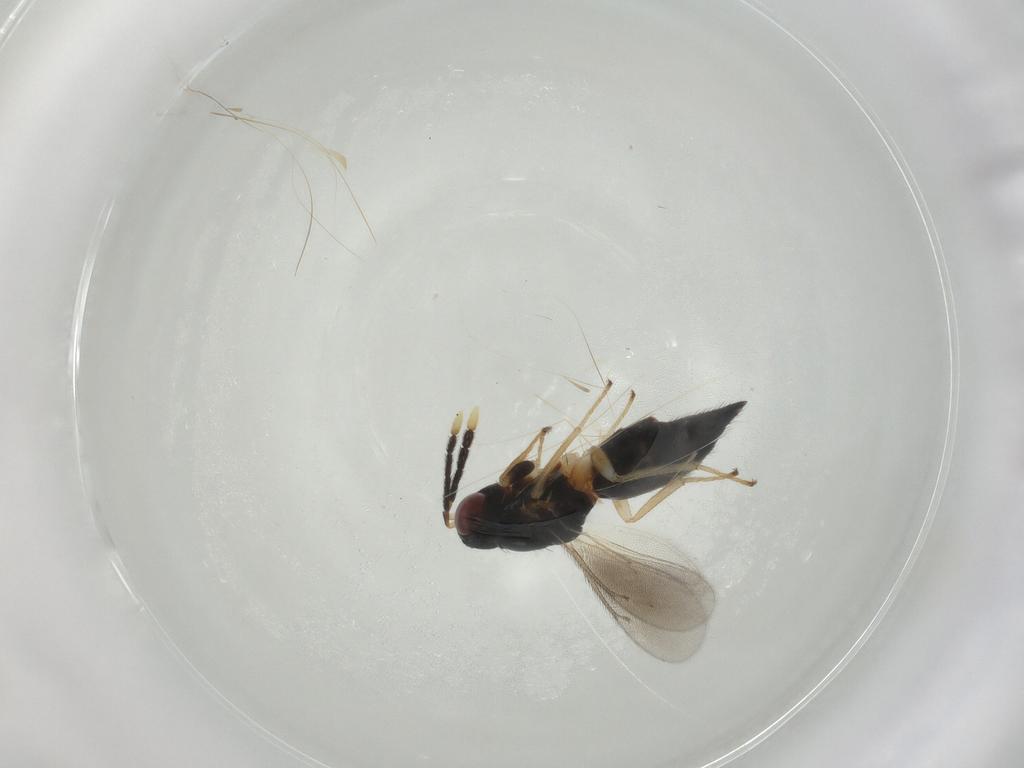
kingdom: Animalia
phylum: Arthropoda
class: Insecta
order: Hymenoptera
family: Eulophidae
